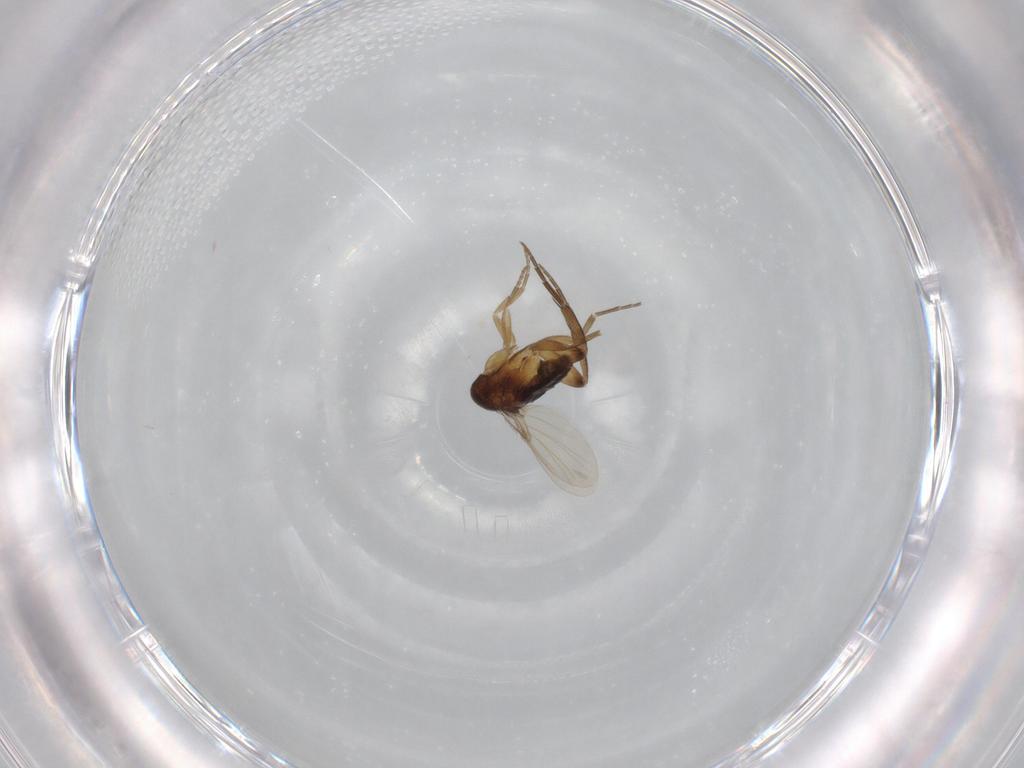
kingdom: Animalia
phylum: Arthropoda
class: Insecta
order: Diptera
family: Phoridae
